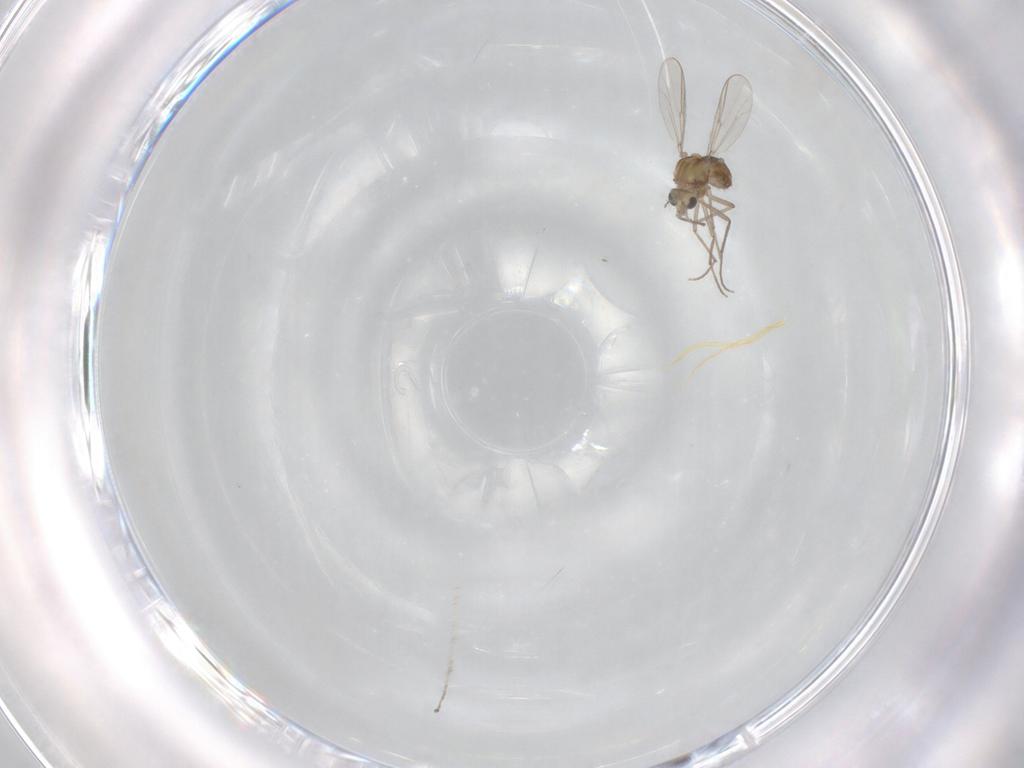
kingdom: Animalia
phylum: Arthropoda
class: Insecta
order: Diptera
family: Chironomidae
